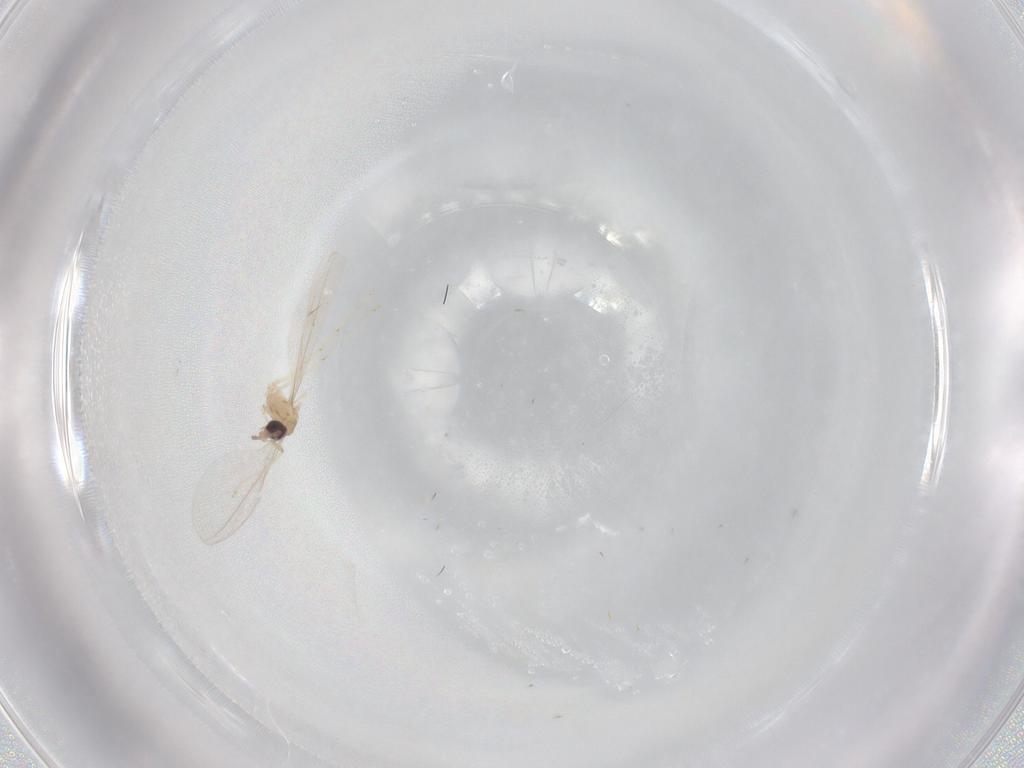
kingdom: Animalia
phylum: Arthropoda
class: Insecta
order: Diptera
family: Cecidomyiidae
